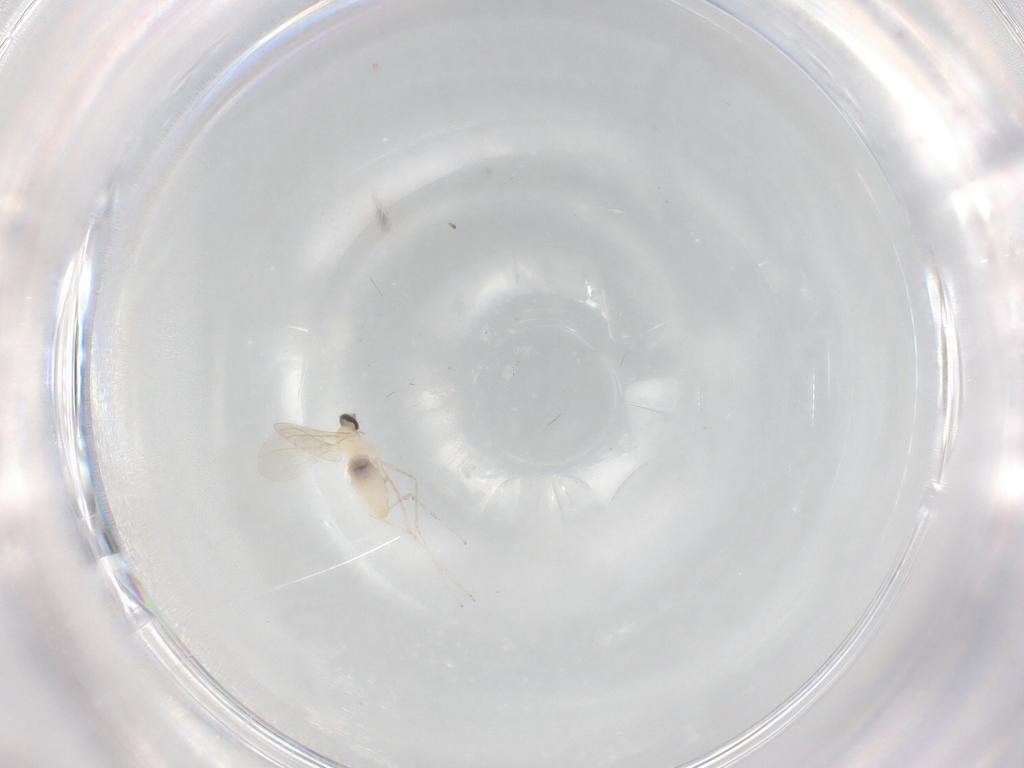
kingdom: Animalia
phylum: Arthropoda
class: Insecta
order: Diptera
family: Cecidomyiidae
